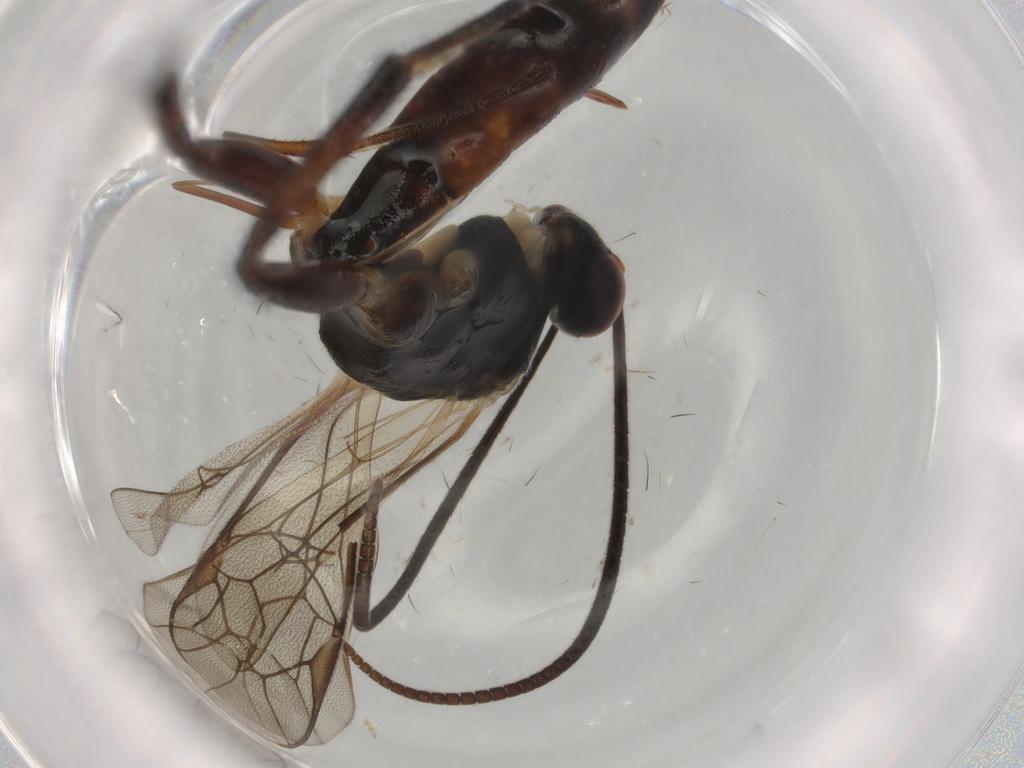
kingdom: Animalia
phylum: Arthropoda
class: Insecta
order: Hymenoptera
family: Ichneumonidae
